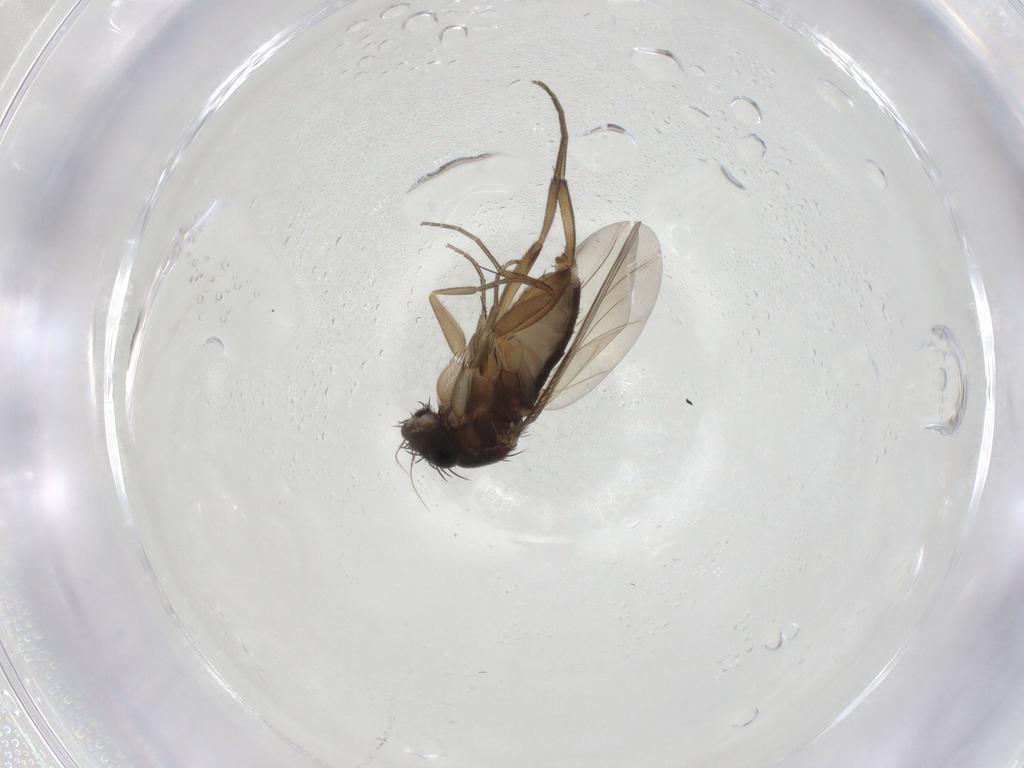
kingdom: Animalia
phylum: Arthropoda
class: Insecta
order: Diptera
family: Phoridae
